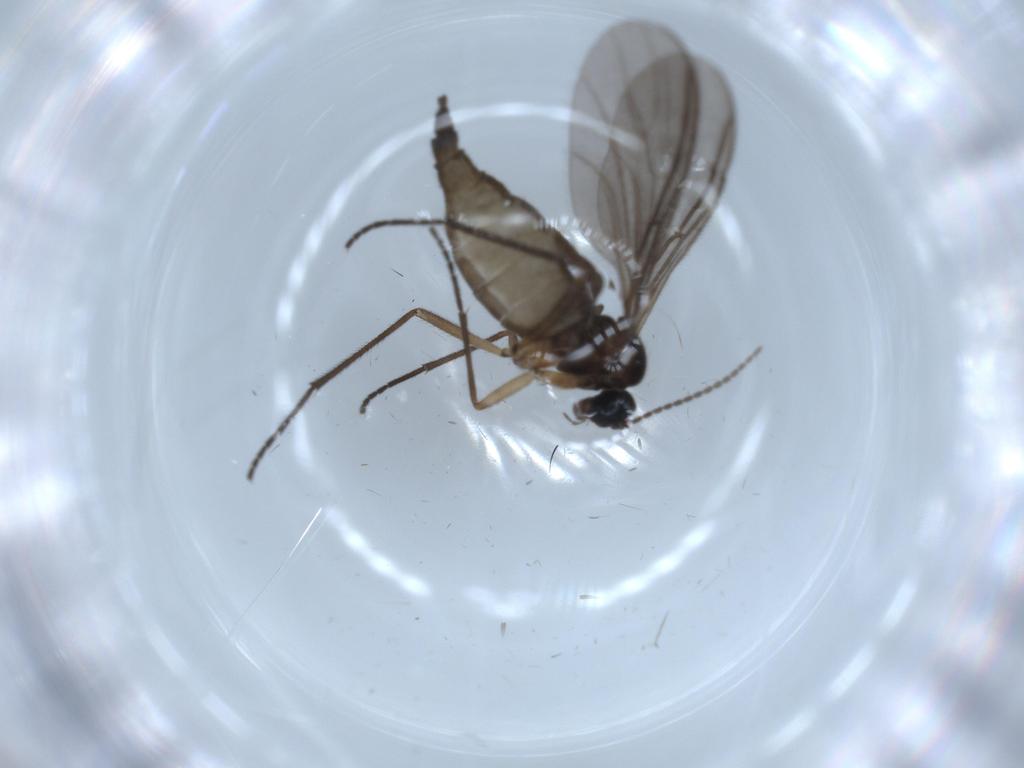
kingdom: Animalia
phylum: Arthropoda
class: Insecta
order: Diptera
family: Sciaridae
